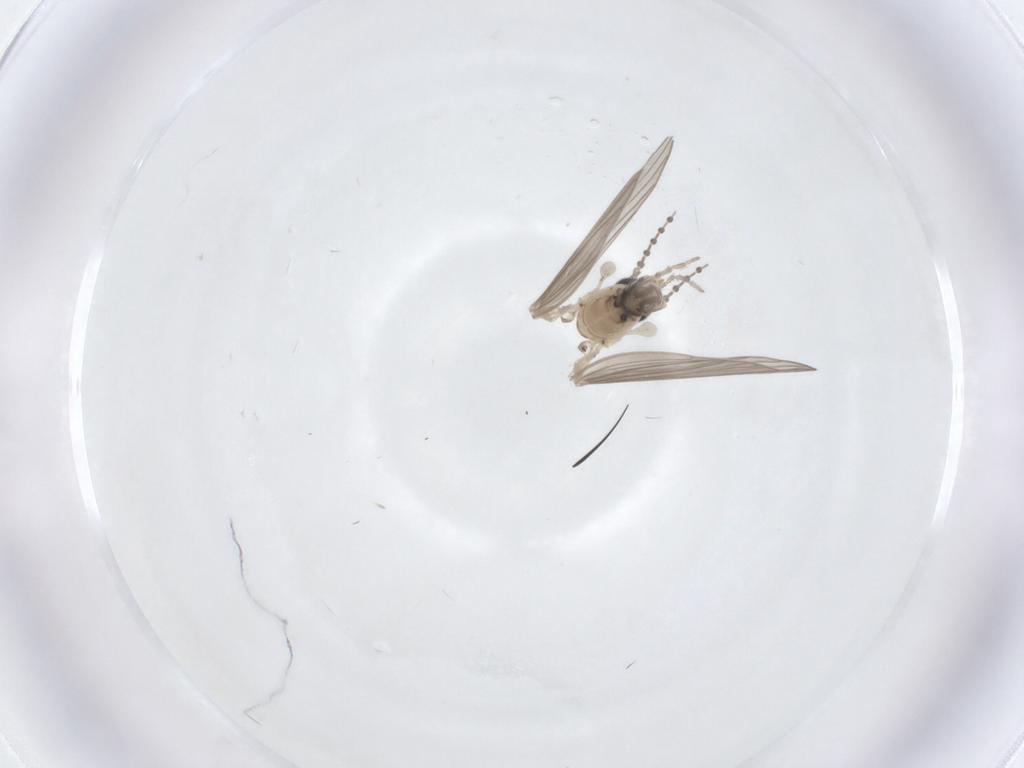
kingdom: Animalia
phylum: Arthropoda
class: Insecta
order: Diptera
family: Psychodidae
